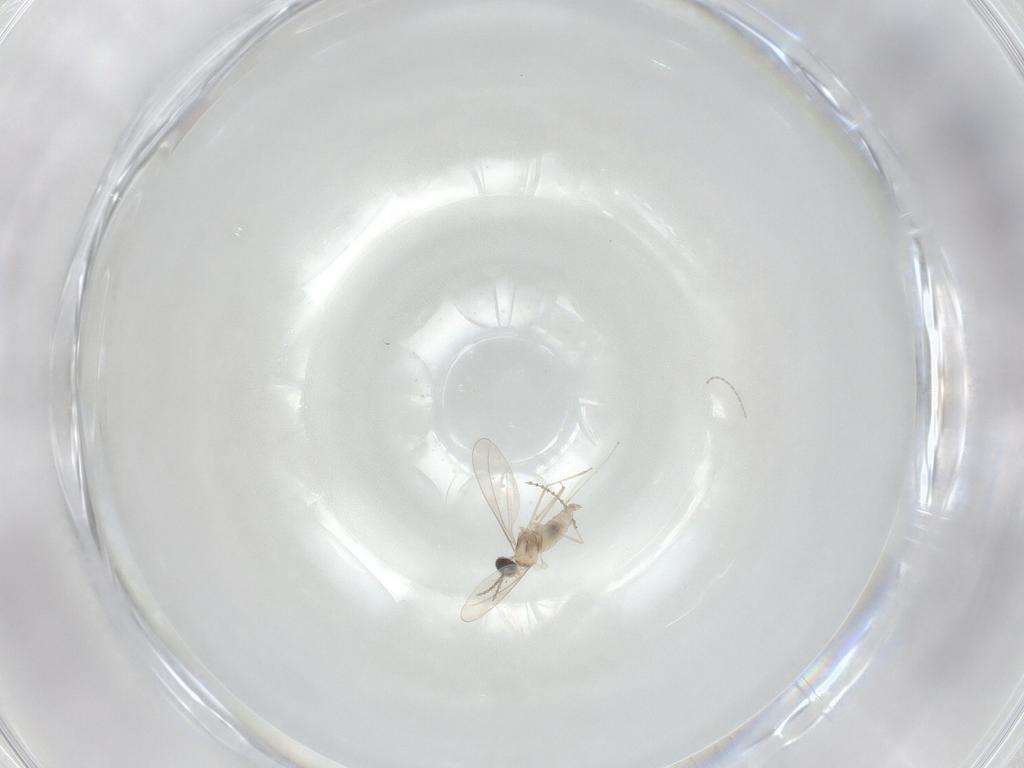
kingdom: Animalia
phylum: Arthropoda
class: Insecta
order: Diptera
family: Cecidomyiidae
